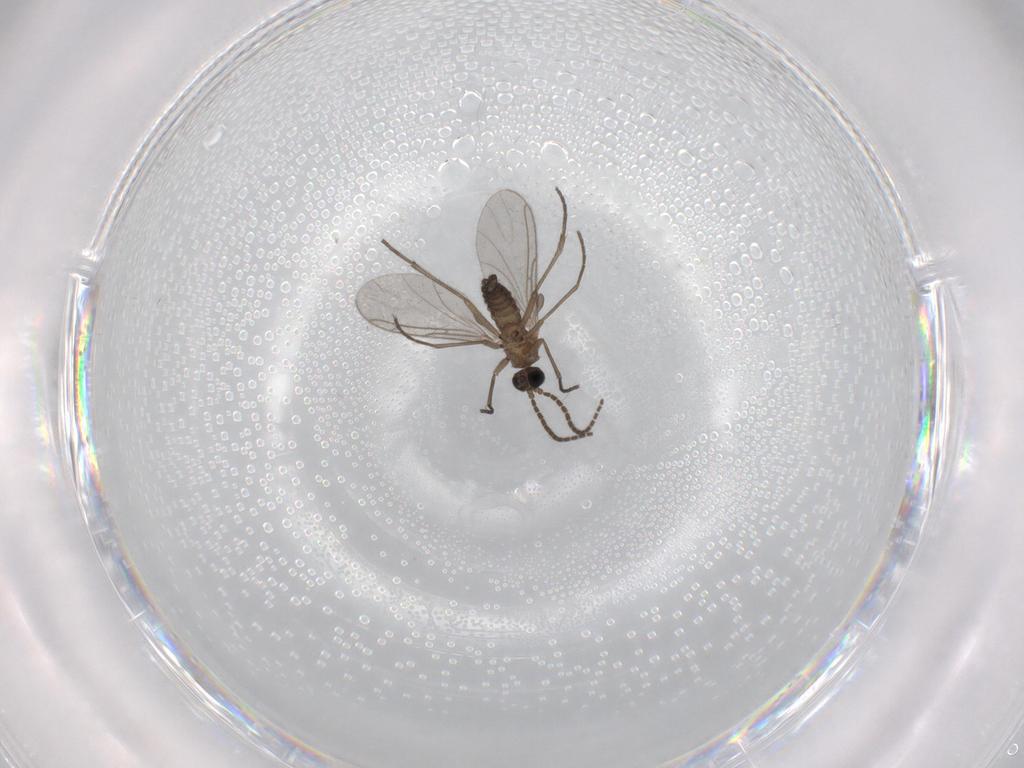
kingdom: Animalia
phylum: Arthropoda
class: Insecta
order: Diptera
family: Sciaridae
